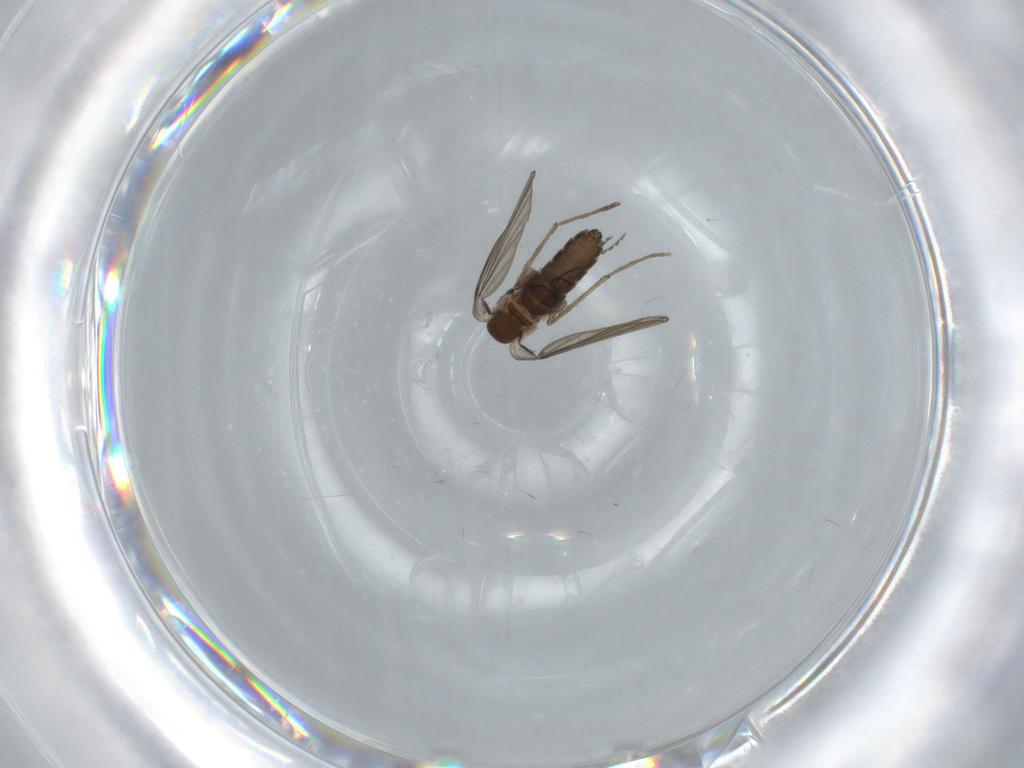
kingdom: Animalia
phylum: Arthropoda
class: Insecta
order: Diptera
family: Sarcophagidae
